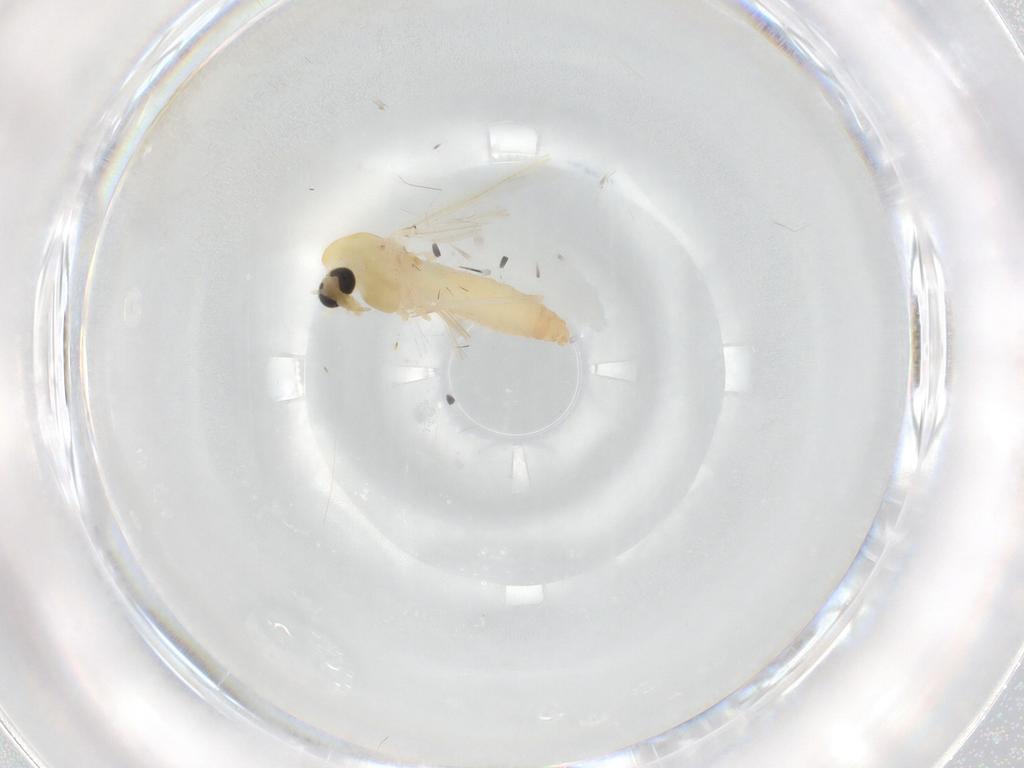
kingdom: Animalia
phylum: Arthropoda
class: Insecta
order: Diptera
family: Chironomidae
